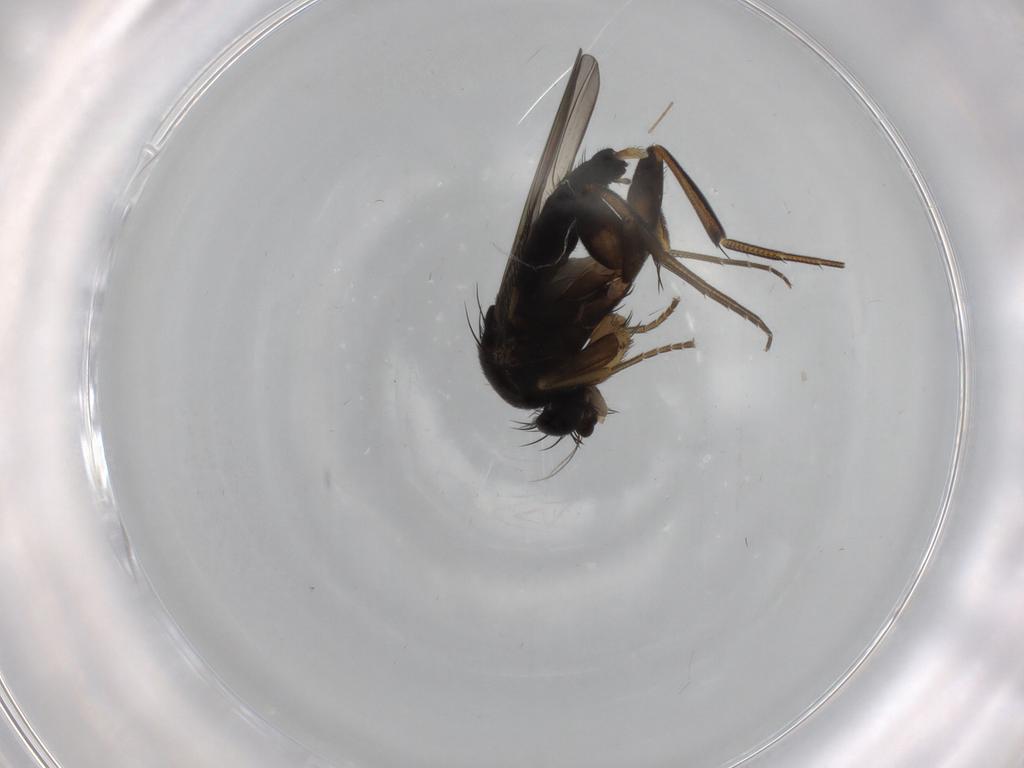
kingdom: Animalia
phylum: Arthropoda
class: Insecta
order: Diptera
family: Phoridae
